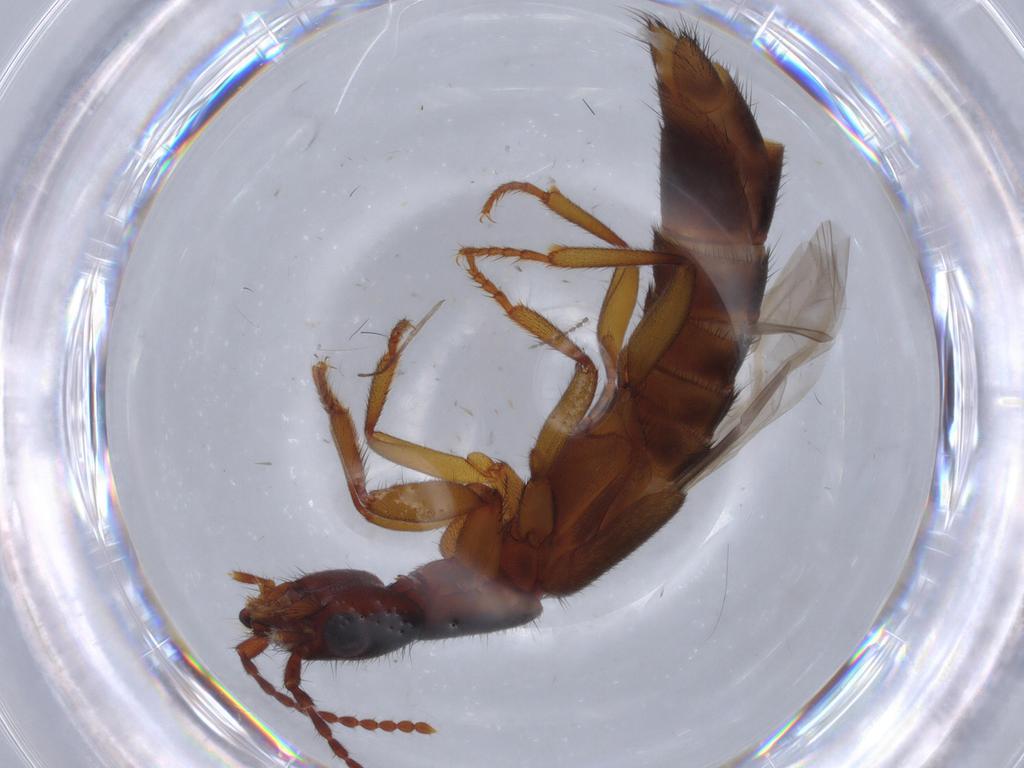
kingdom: Animalia
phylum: Arthropoda
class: Insecta
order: Coleoptera
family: Staphylinidae
